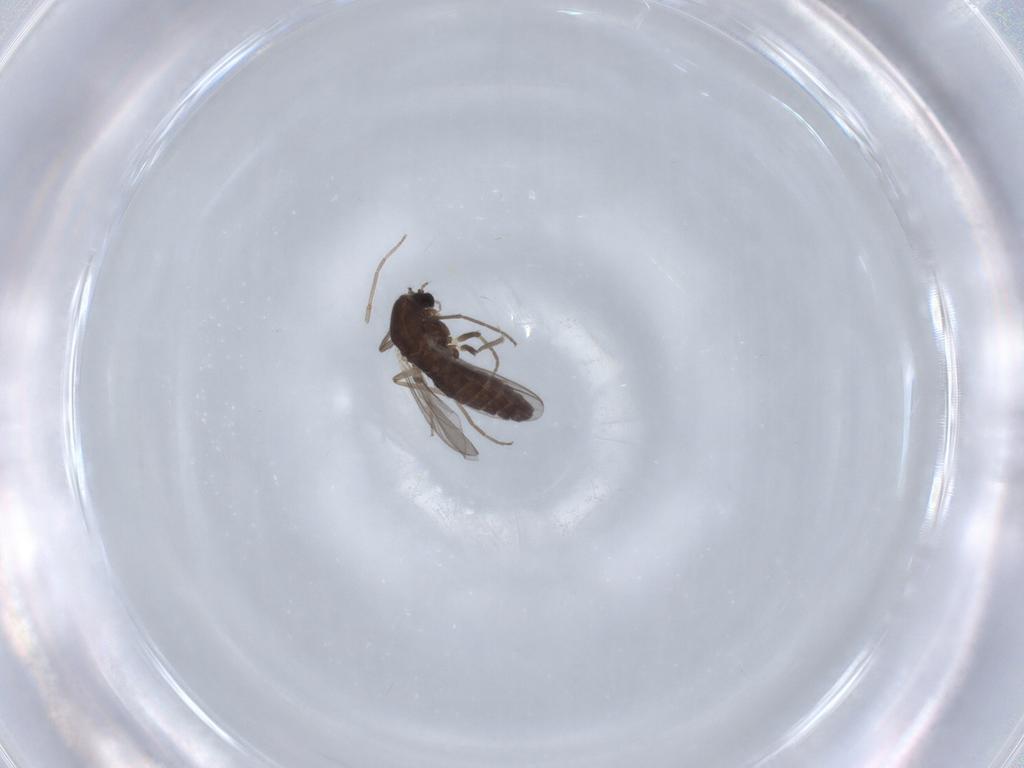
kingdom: Animalia
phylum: Arthropoda
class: Insecta
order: Diptera
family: Chironomidae
